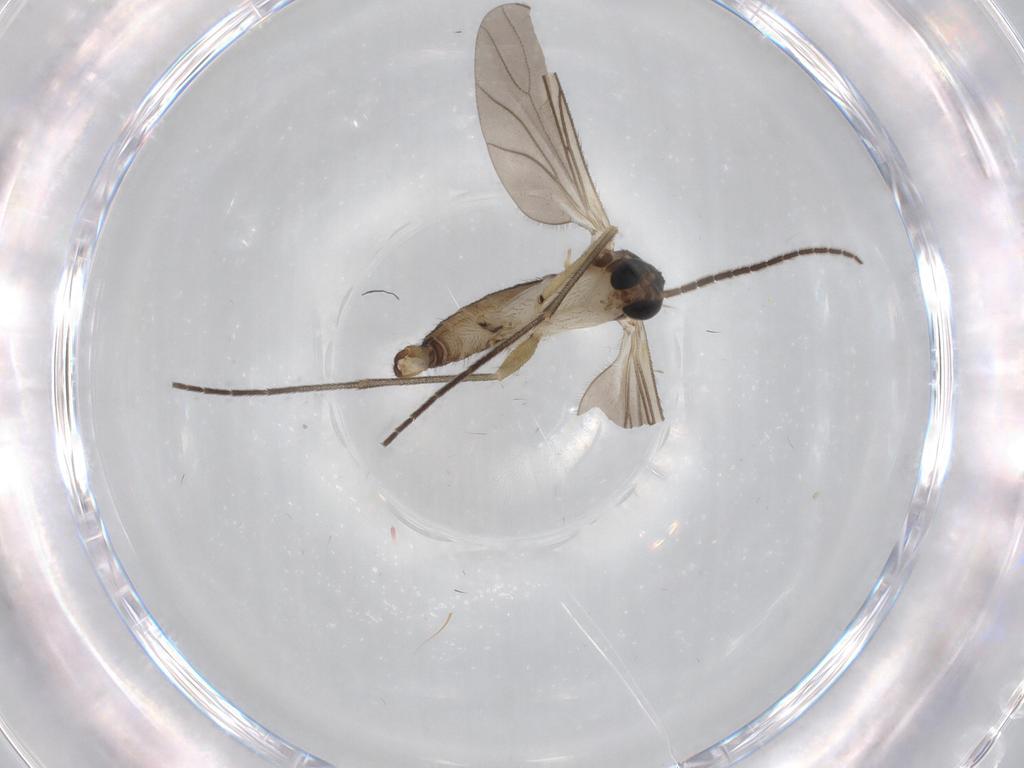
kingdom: Animalia
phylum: Arthropoda
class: Insecta
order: Diptera
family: Sciaridae
